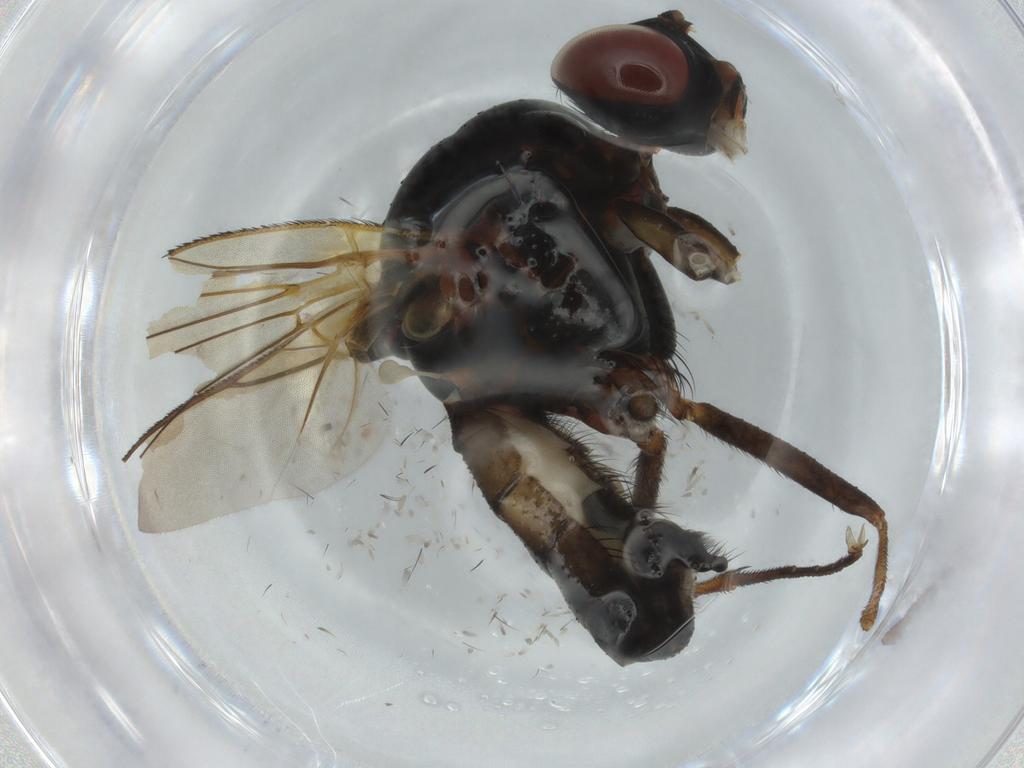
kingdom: Animalia
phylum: Arthropoda
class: Insecta
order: Diptera
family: Anthomyiidae
